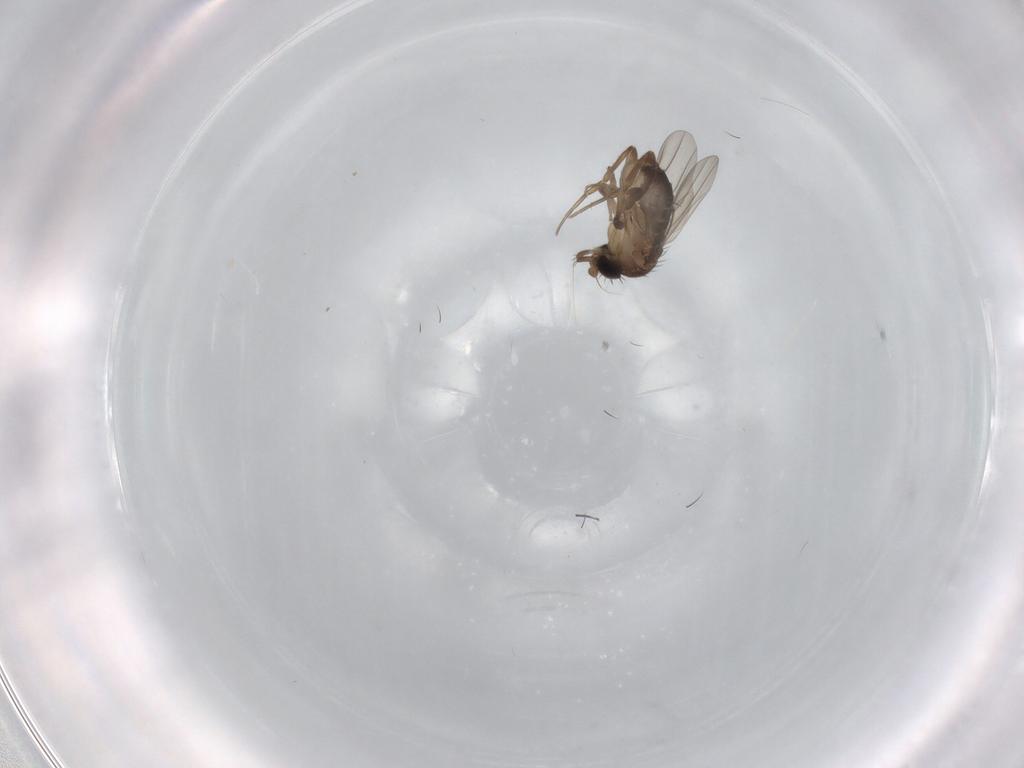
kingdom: Animalia
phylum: Arthropoda
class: Insecta
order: Diptera
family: Phoridae
